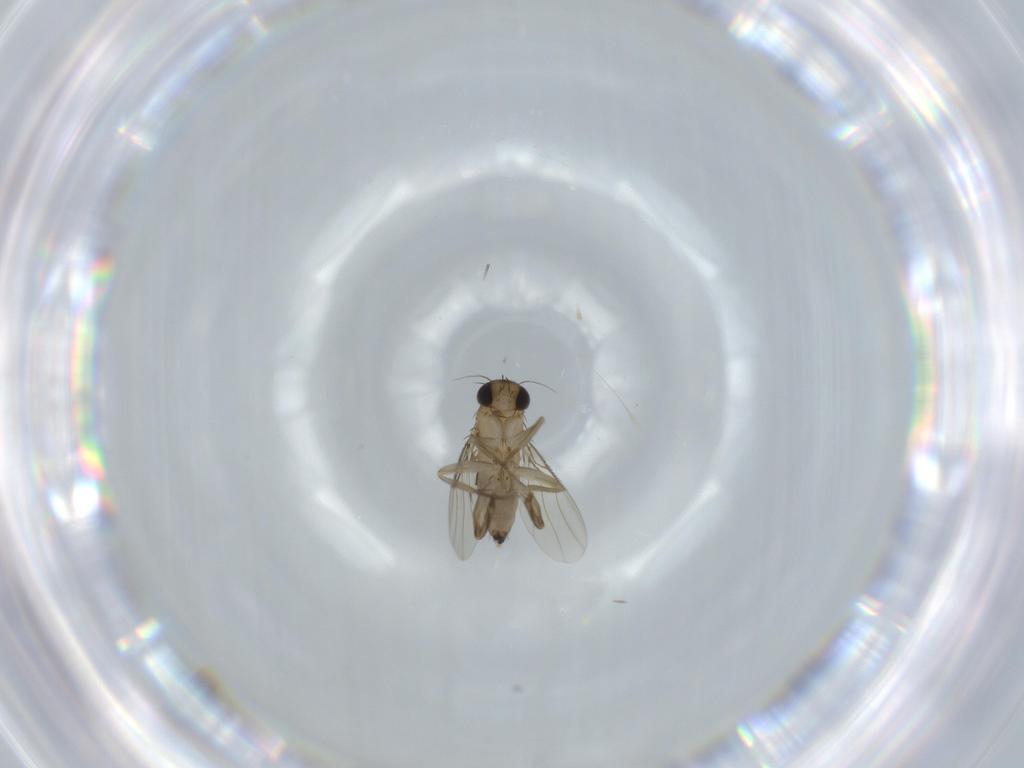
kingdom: Animalia
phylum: Arthropoda
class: Insecta
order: Diptera
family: Phoridae
